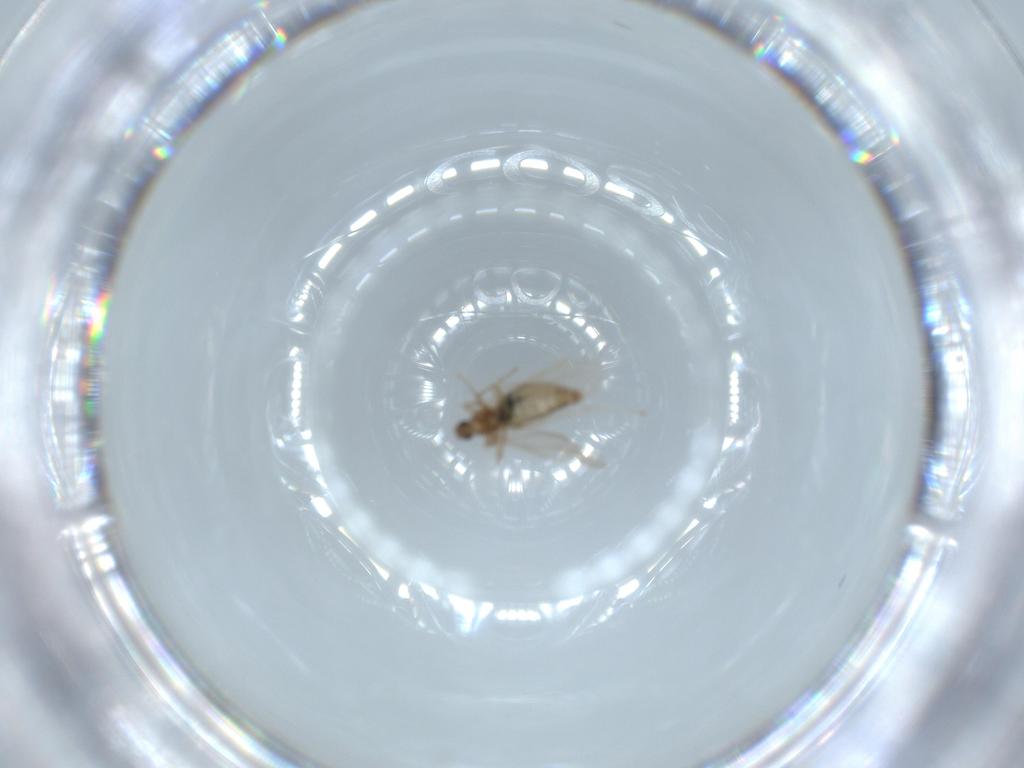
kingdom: Animalia
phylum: Arthropoda
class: Insecta
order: Diptera
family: Cecidomyiidae
